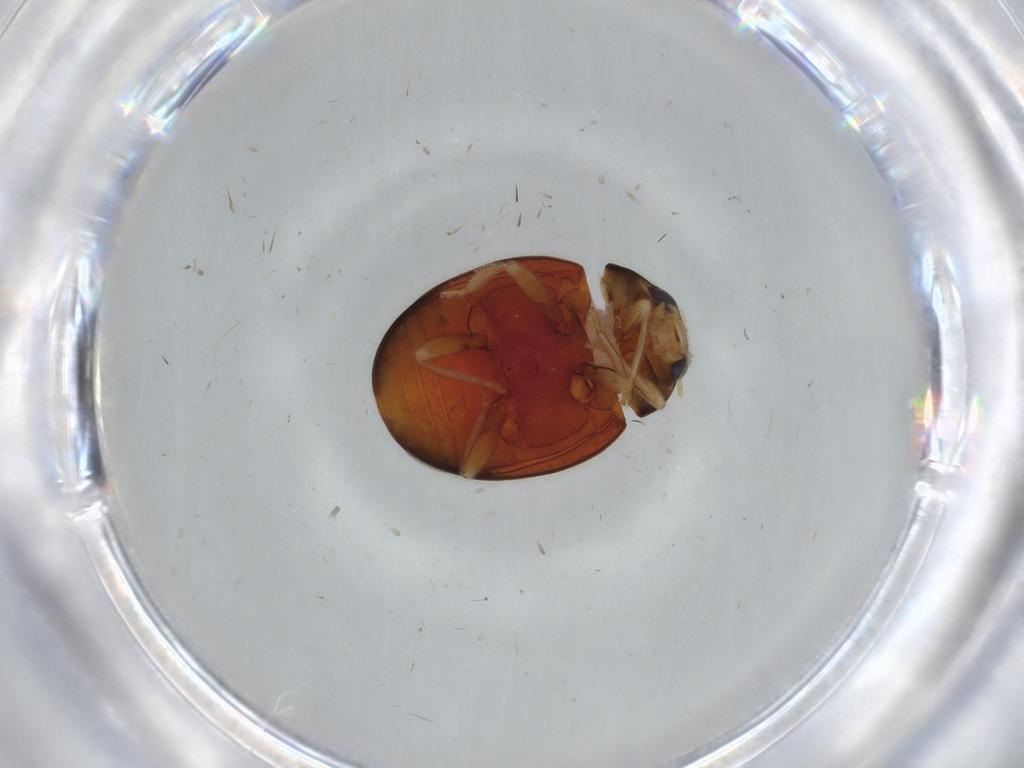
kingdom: Animalia
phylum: Arthropoda
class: Insecta
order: Coleoptera
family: Coccinellidae
